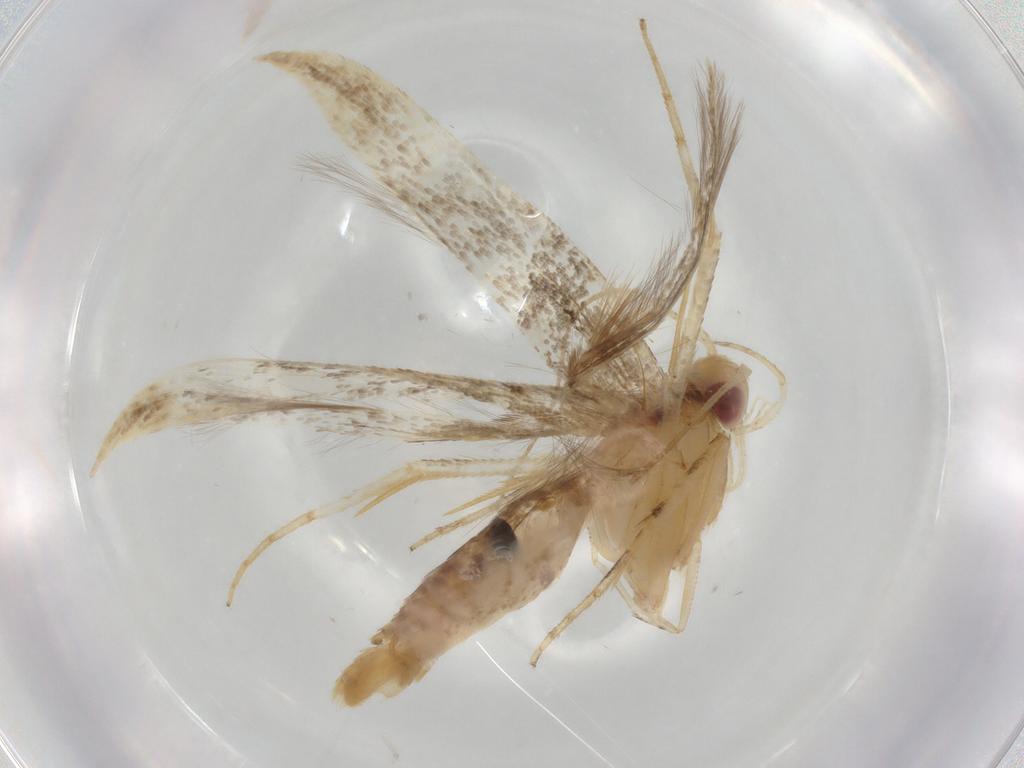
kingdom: Animalia
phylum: Arthropoda
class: Insecta
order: Lepidoptera
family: Cosmopterigidae
